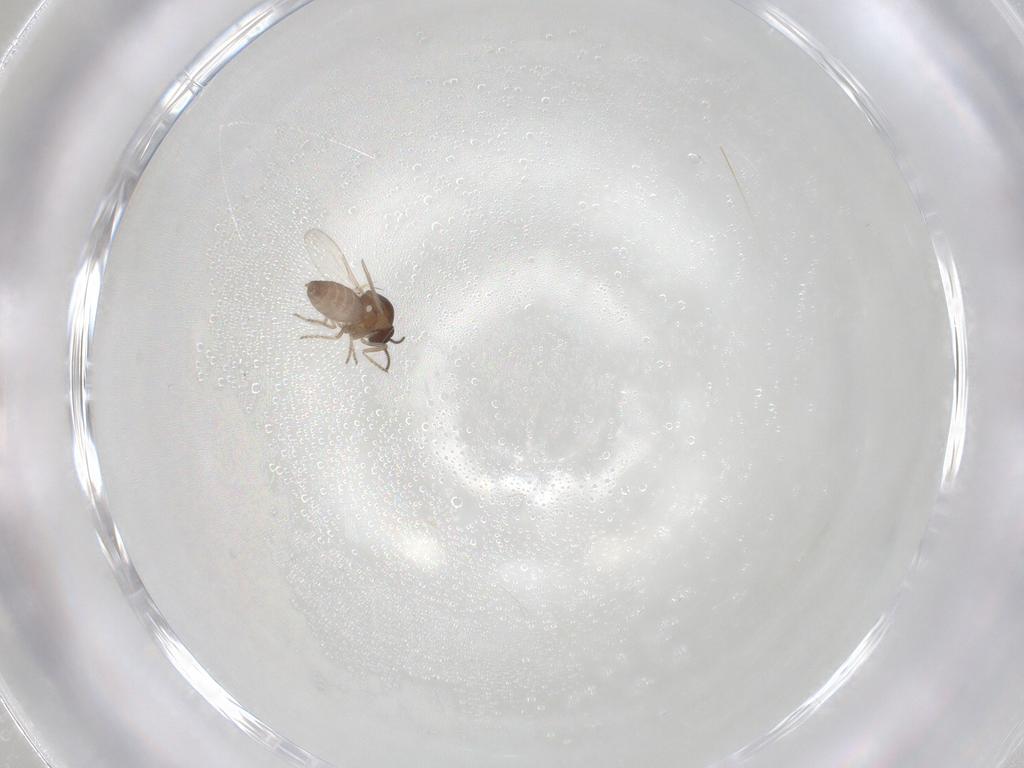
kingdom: Animalia
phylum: Arthropoda
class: Insecta
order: Diptera
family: Ceratopogonidae
